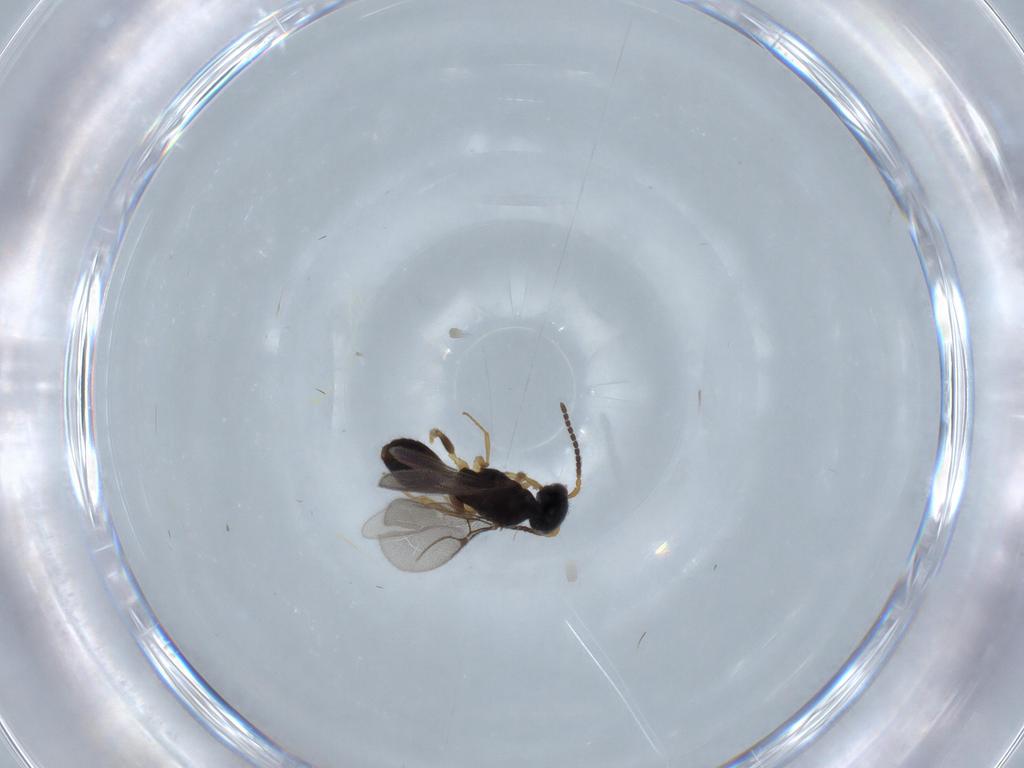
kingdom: Animalia
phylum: Arthropoda
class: Insecta
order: Hymenoptera
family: Bethylidae
